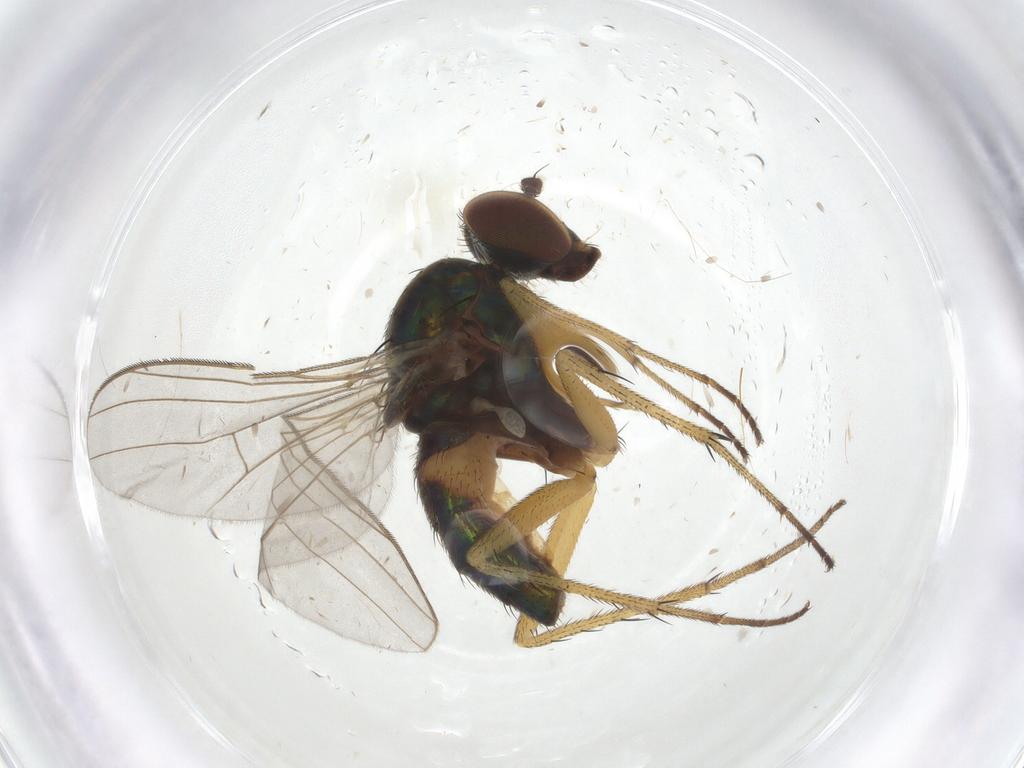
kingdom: Animalia
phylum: Arthropoda
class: Insecta
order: Diptera
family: Dolichopodidae
